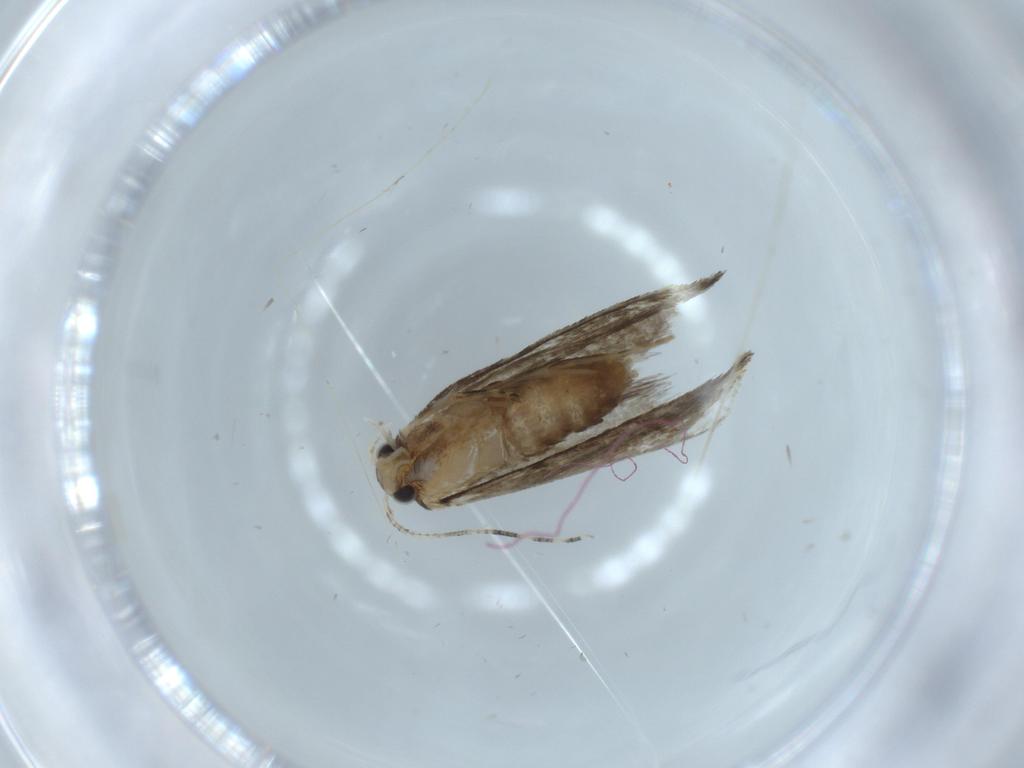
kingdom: Animalia
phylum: Arthropoda
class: Insecta
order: Lepidoptera
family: Tineidae
